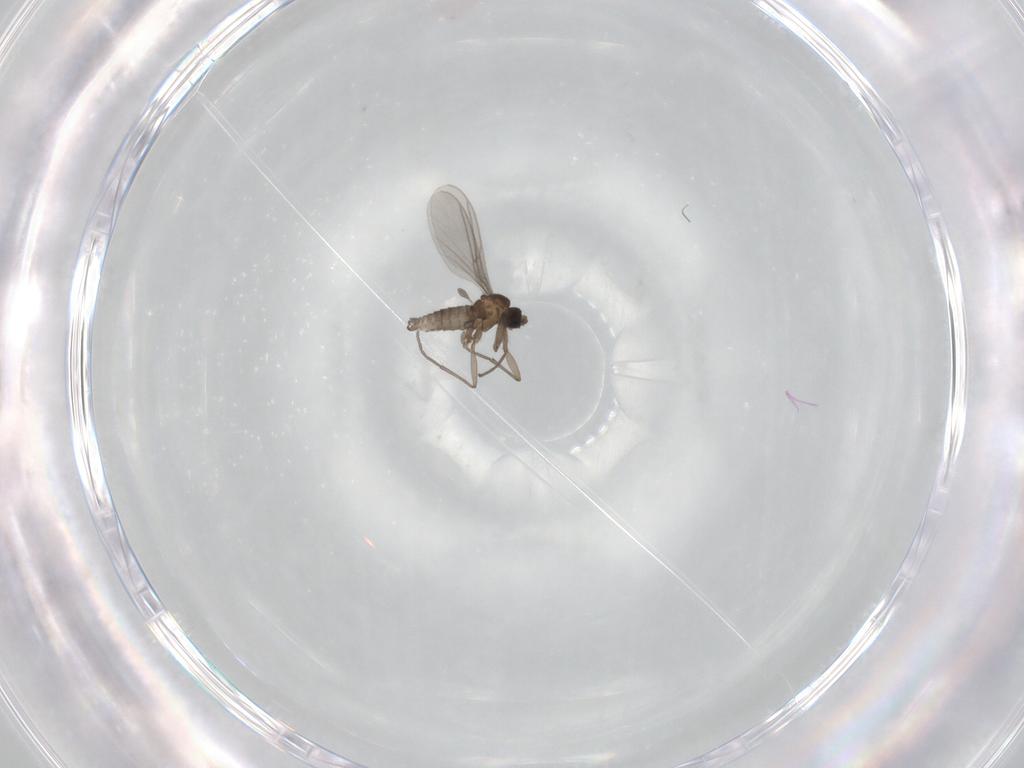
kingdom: Animalia
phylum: Arthropoda
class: Insecta
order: Diptera
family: Sciaridae
